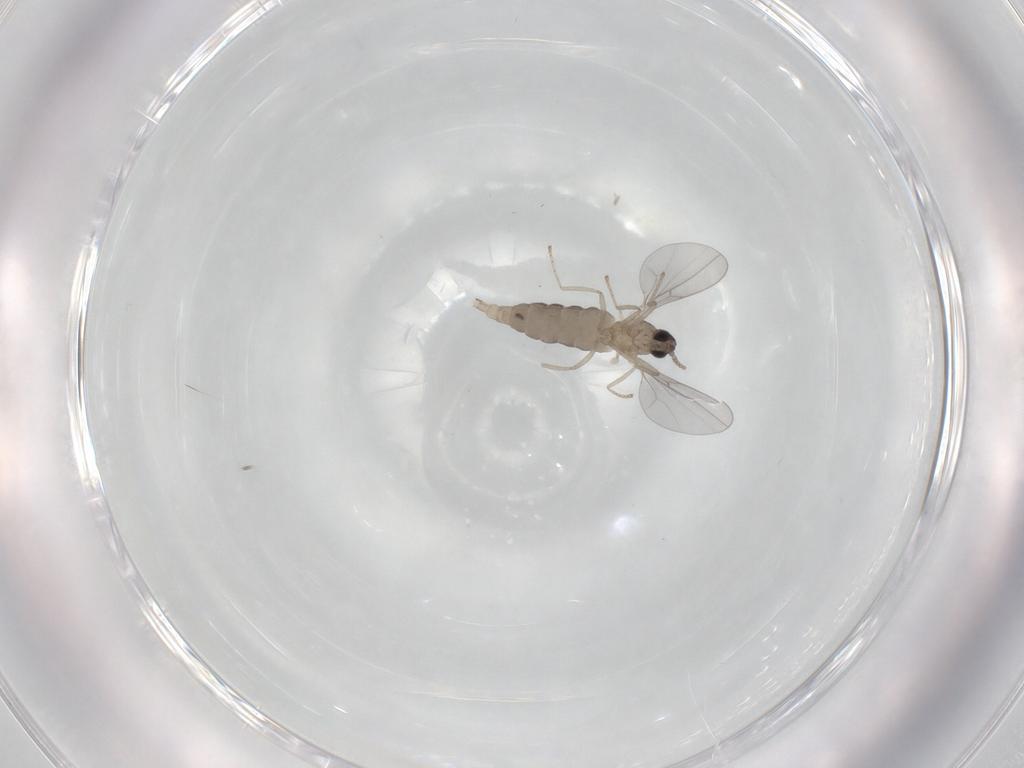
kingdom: Animalia
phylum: Arthropoda
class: Insecta
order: Diptera
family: Cecidomyiidae
